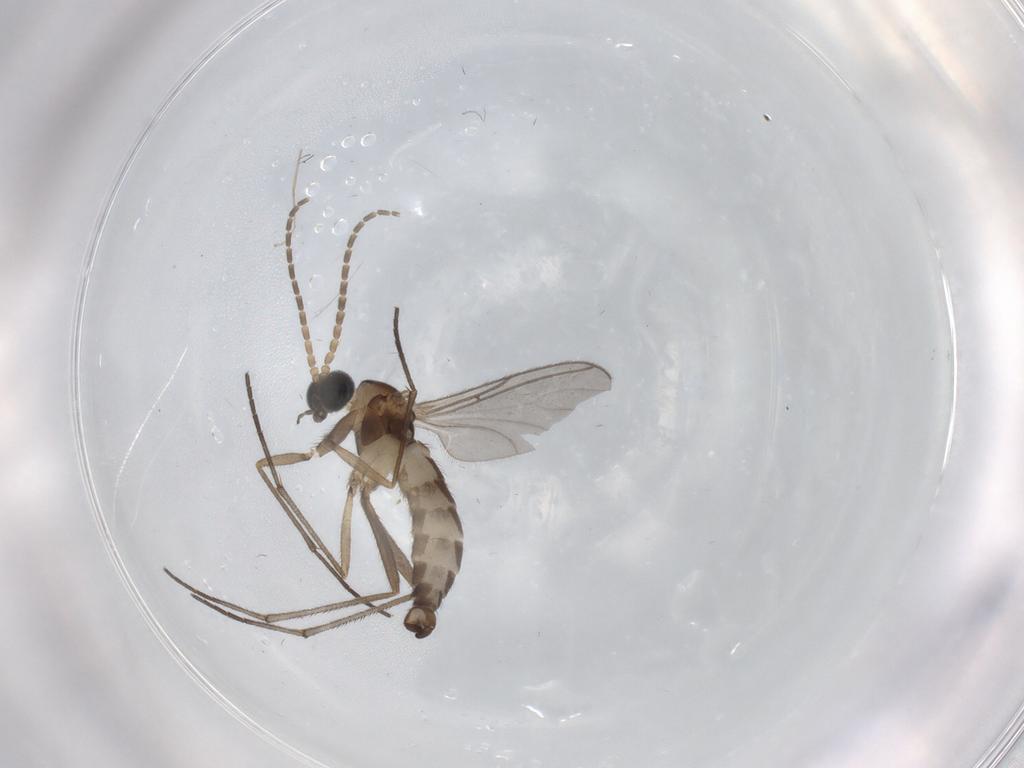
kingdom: Animalia
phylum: Arthropoda
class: Insecta
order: Diptera
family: Sciaridae
